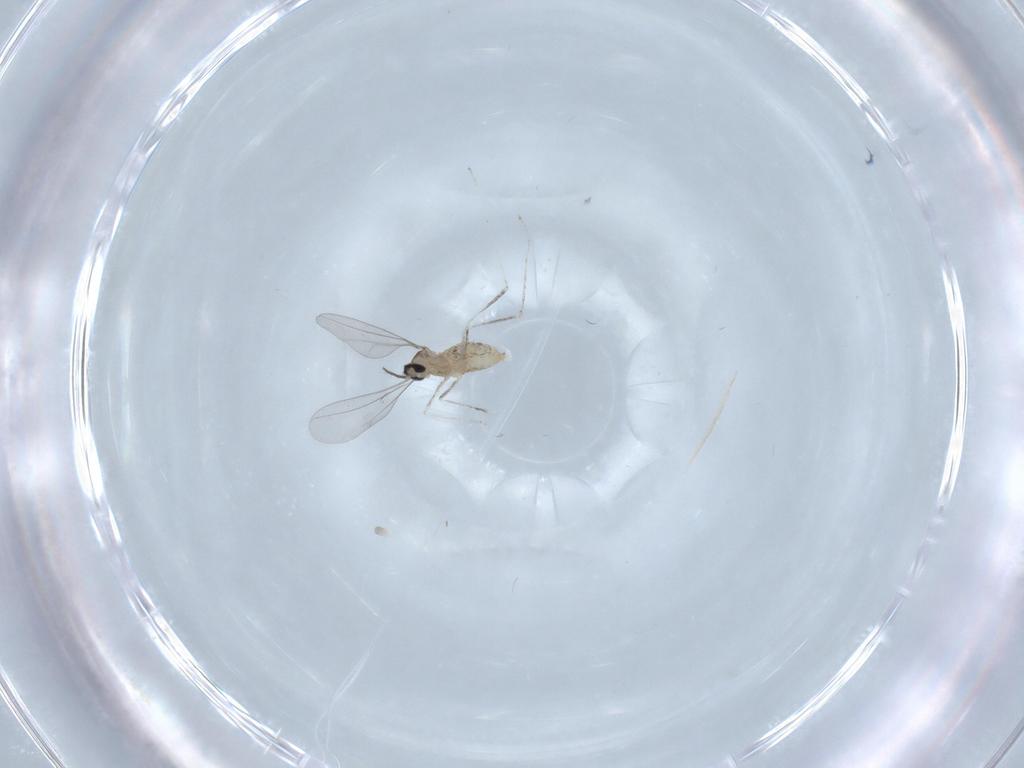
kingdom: Animalia
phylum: Arthropoda
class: Insecta
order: Diptera
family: Cecidomyiidae
